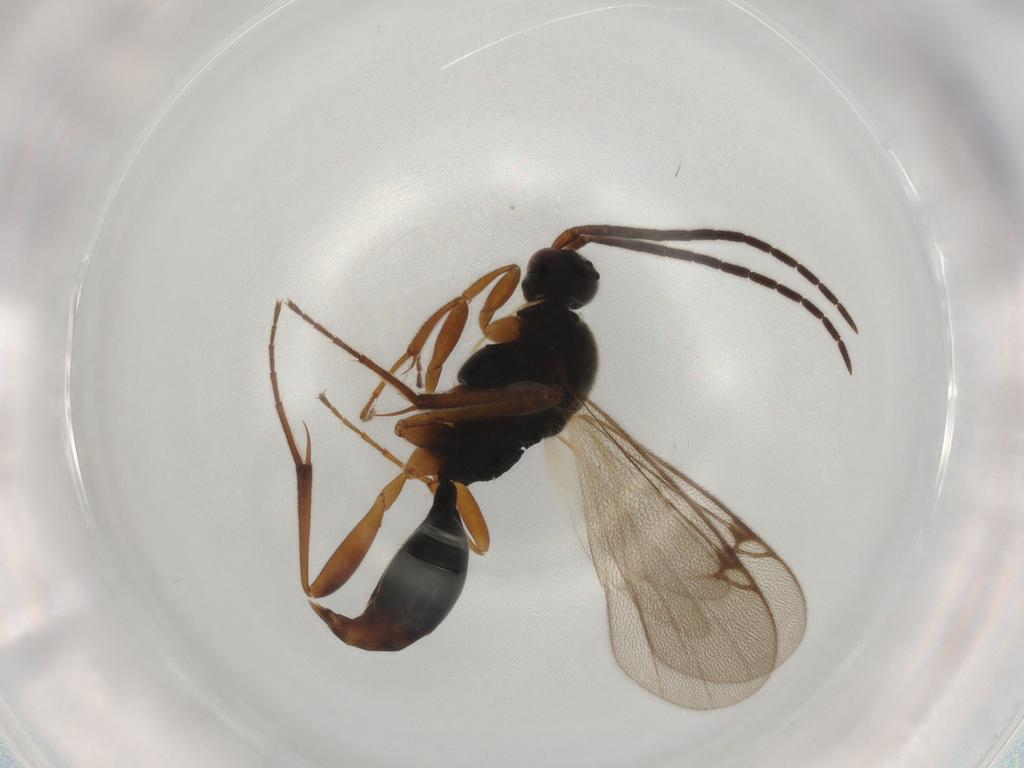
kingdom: Animalia
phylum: Arthropoda
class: Insecta
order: Hymenoptera
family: Proctotrupidae
